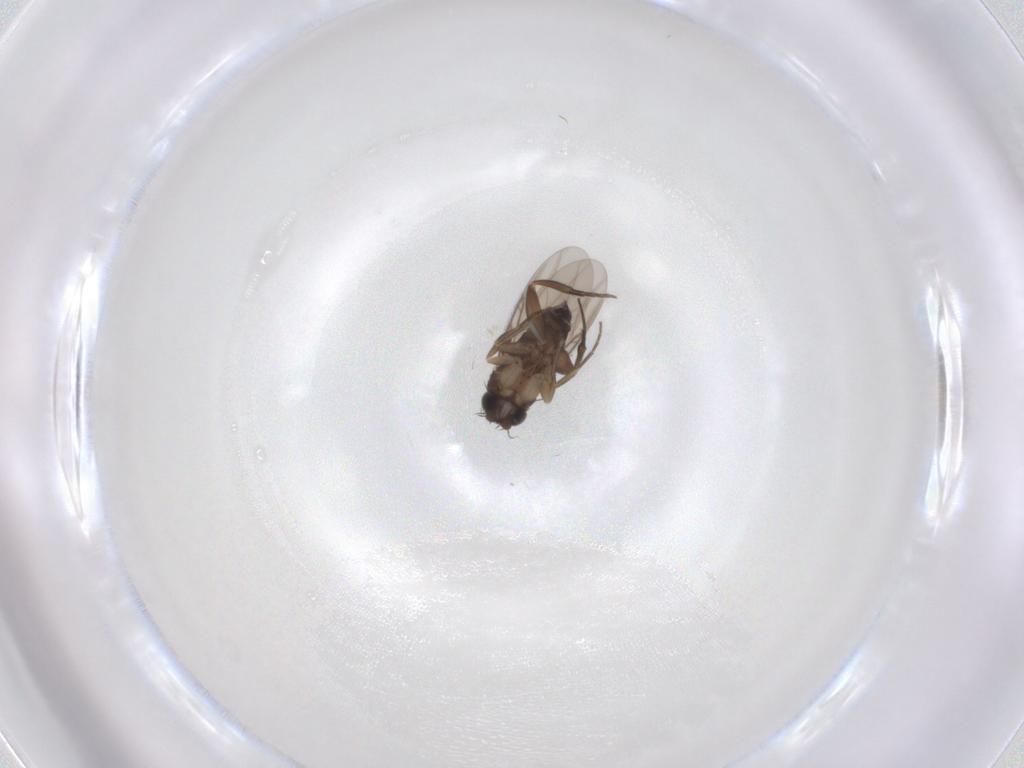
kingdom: Animalia
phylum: Arthropoda
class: Insecta
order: Diptera
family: Phoridae
